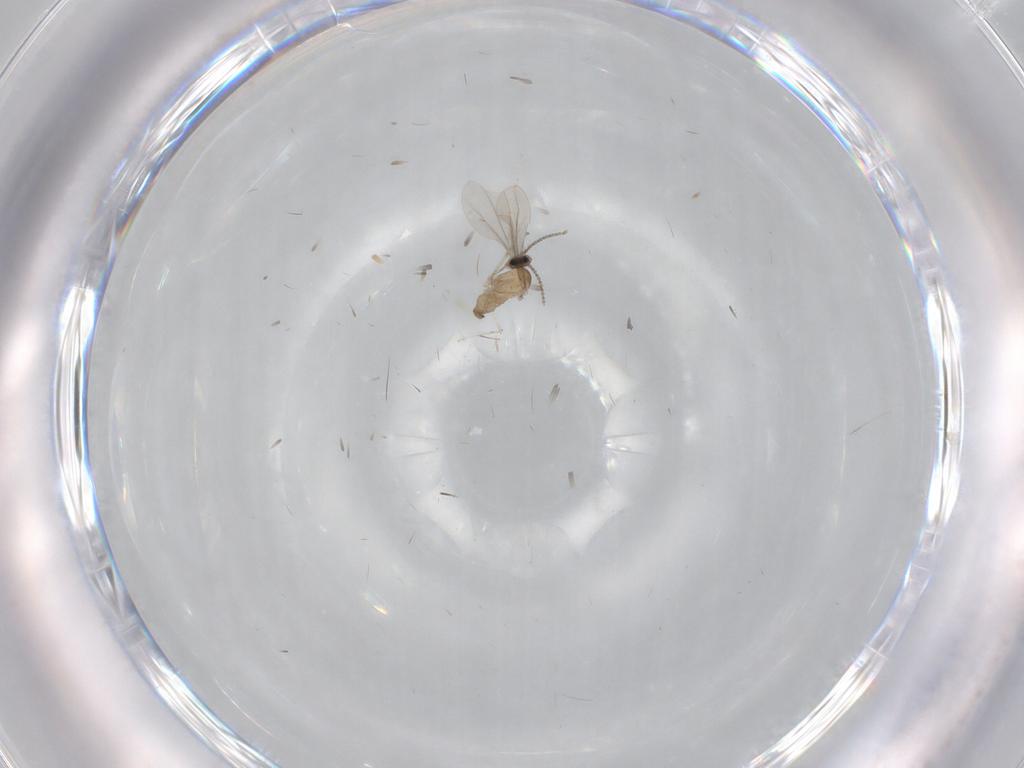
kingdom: Animalia
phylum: Arthropoda
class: Insecta
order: Diptera
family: Cecidomyiidae
